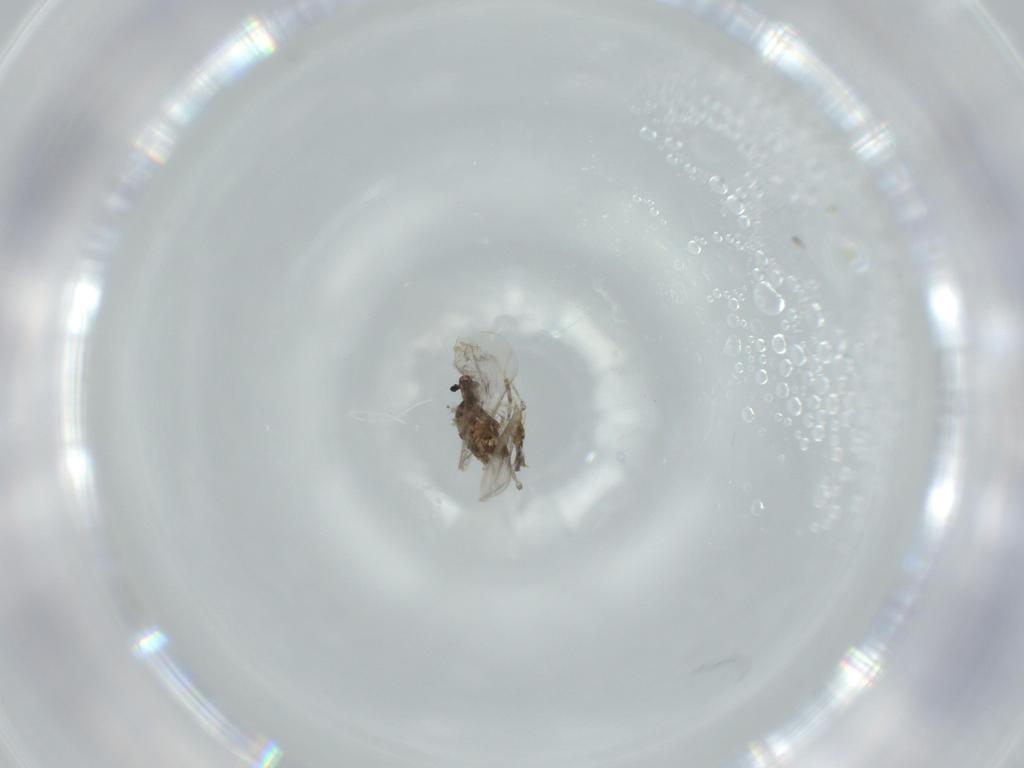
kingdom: Animalia
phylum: Arthropoda
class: Insecta
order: Diptera
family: Cecidomyiidae
